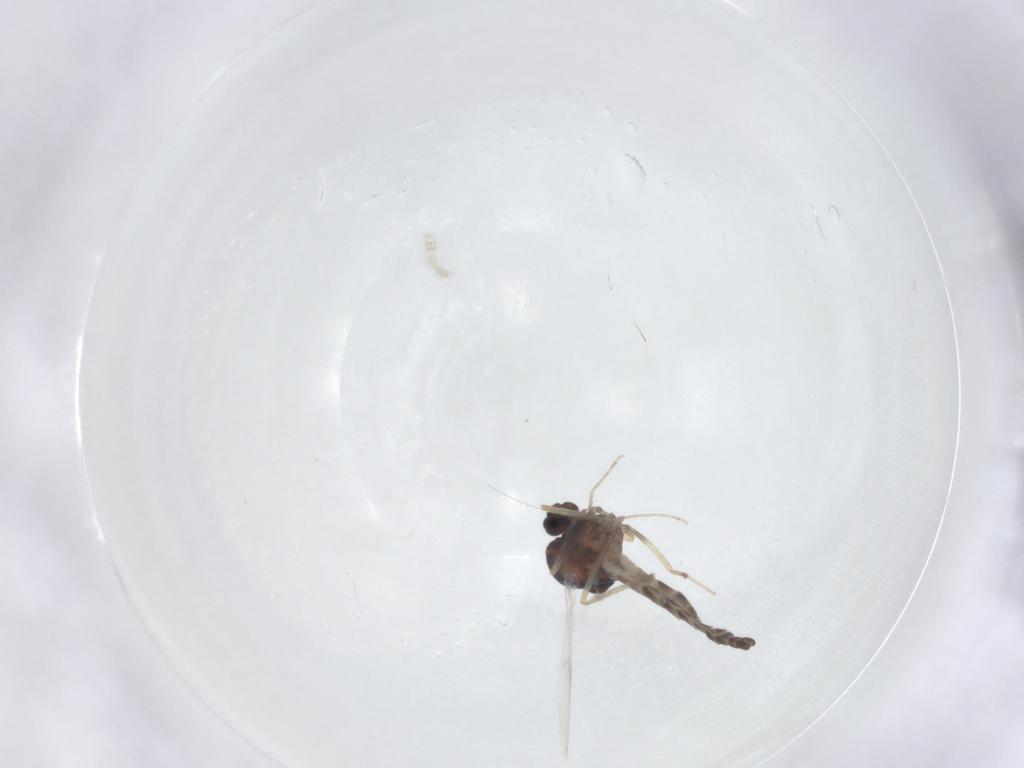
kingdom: Animalia
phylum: Arthropoda
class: Insecta
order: Diptera
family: Ceratopogonidae
